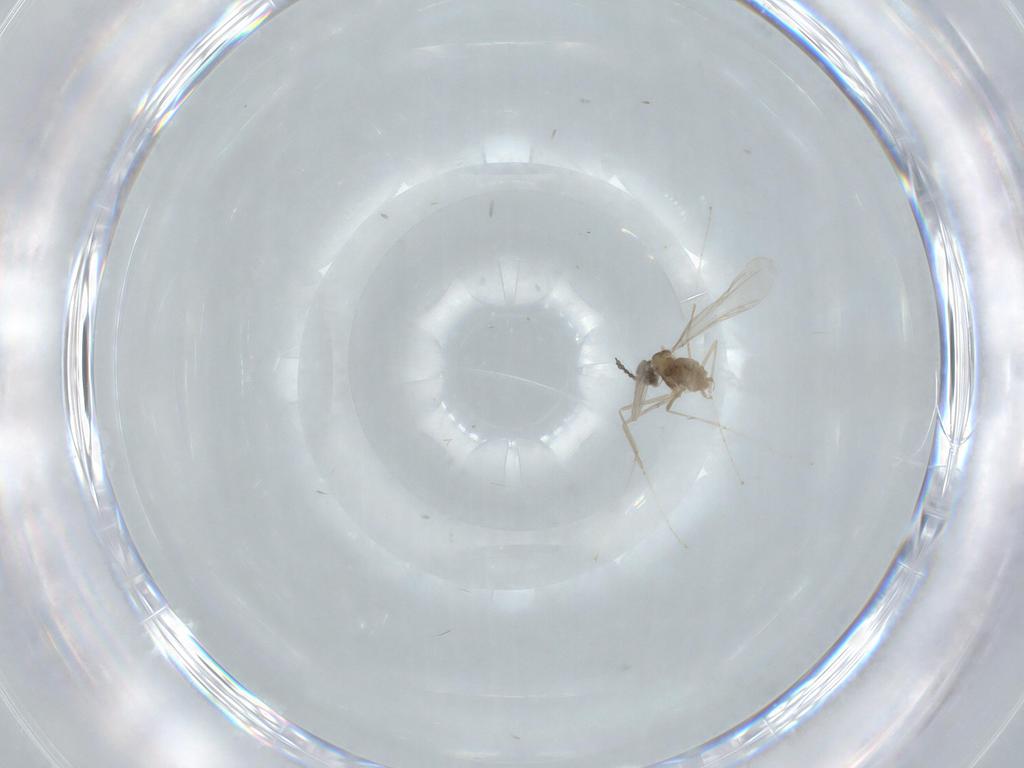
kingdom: Animalia
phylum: Arthropoda
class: Insecta
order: Diptera
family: Cecidomyiidae
